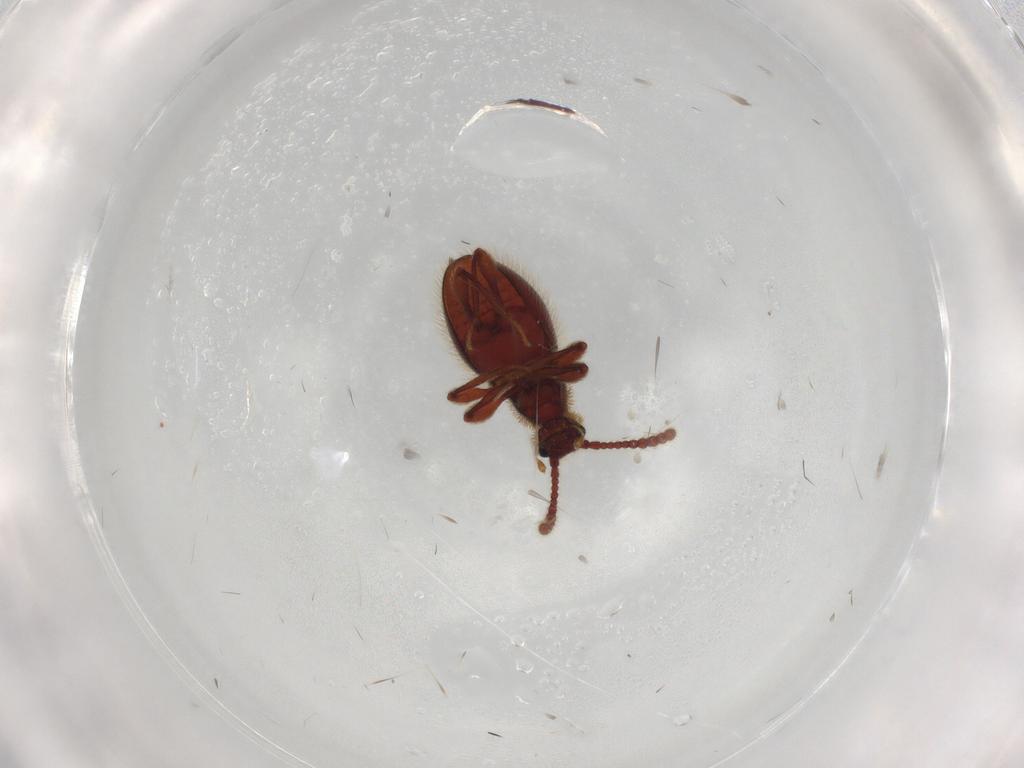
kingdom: Animalia
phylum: Arthropoda
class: Insecta
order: Coleoptera
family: Staphylinidae
